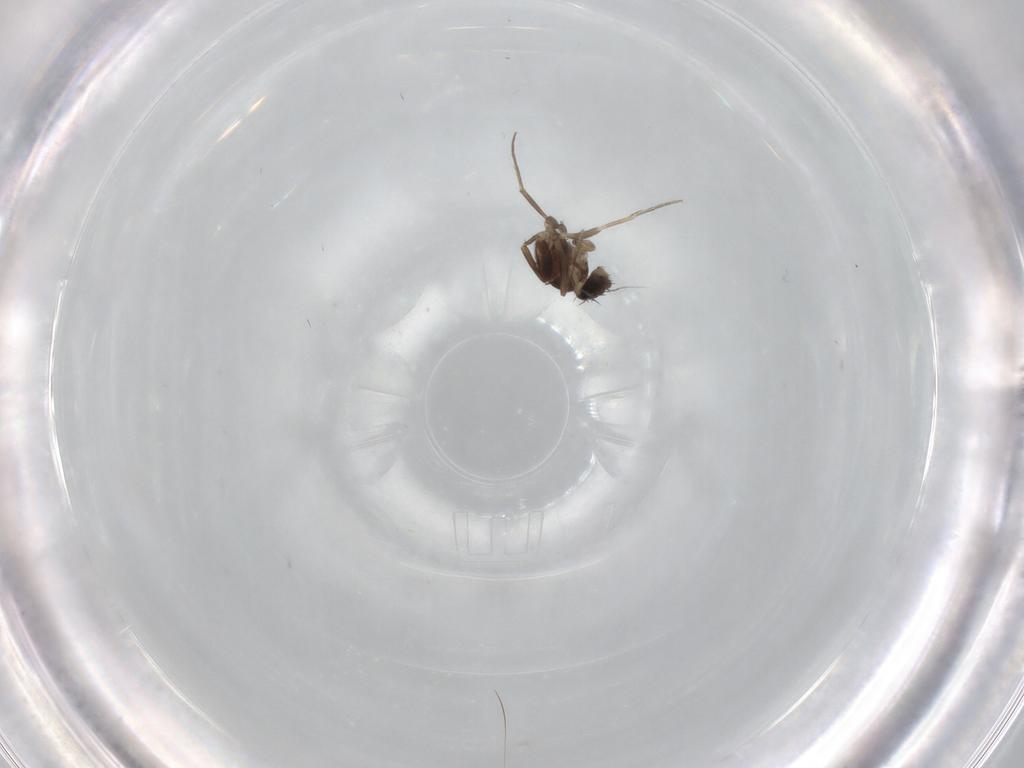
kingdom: Animalia
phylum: Arthropoda
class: Insecta
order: Diptera
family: Phoridae
